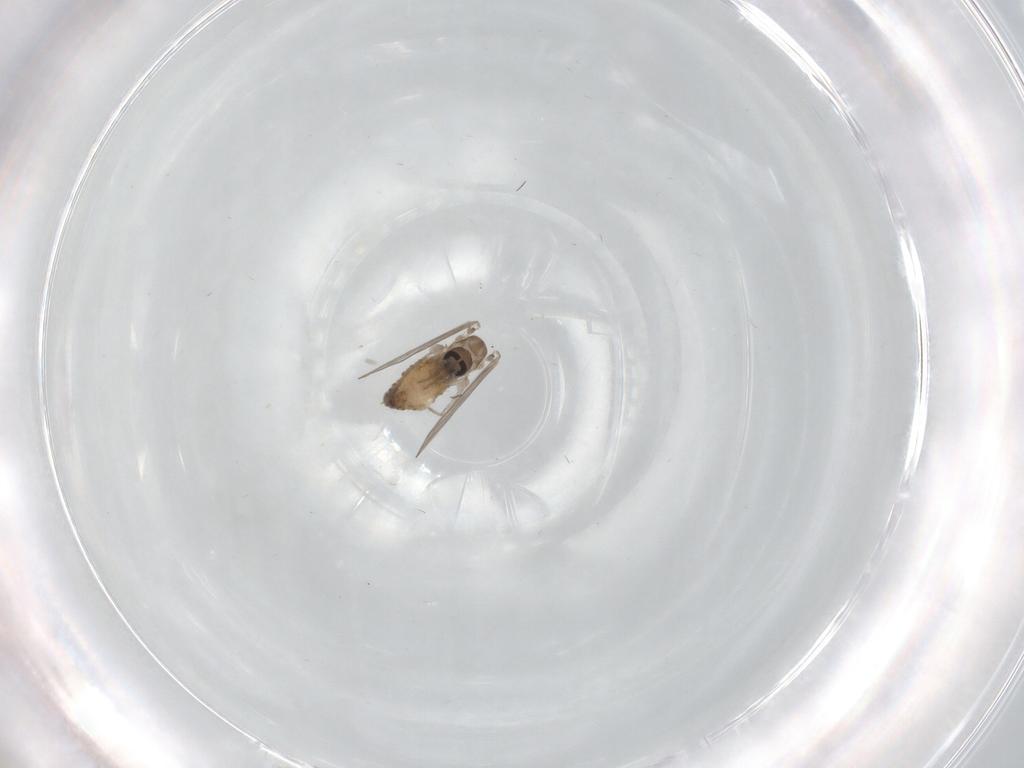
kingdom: Animalia
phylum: Arthropoda
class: Insecta
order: Diptera
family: Psychodidae
